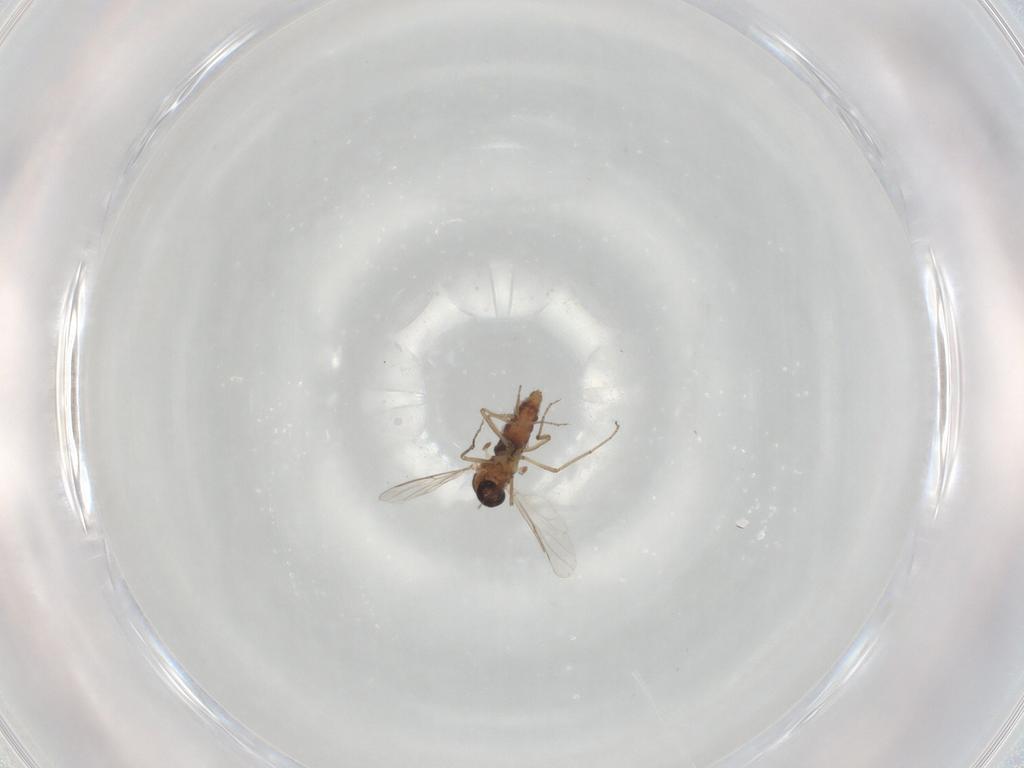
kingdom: Animalia
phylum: Arthropoda
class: Insecta
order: Diptera
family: Ceratopogonidae
